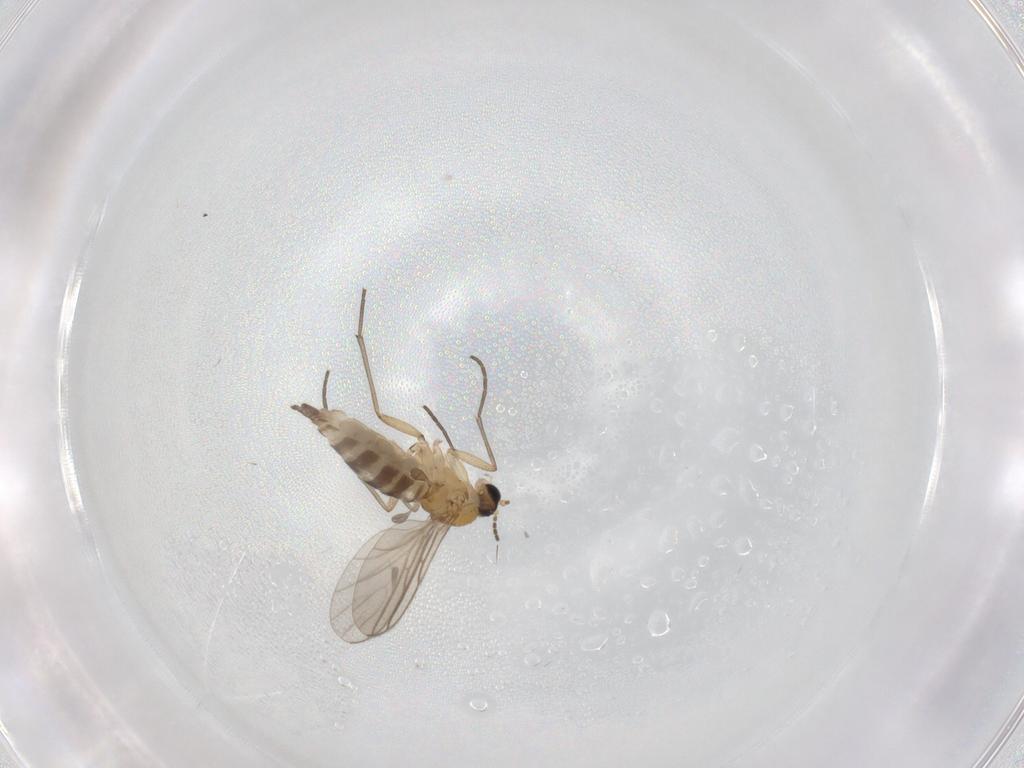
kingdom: Animalia
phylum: Arthropoda
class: Insecta
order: Diptera
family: Dolichopodidae
